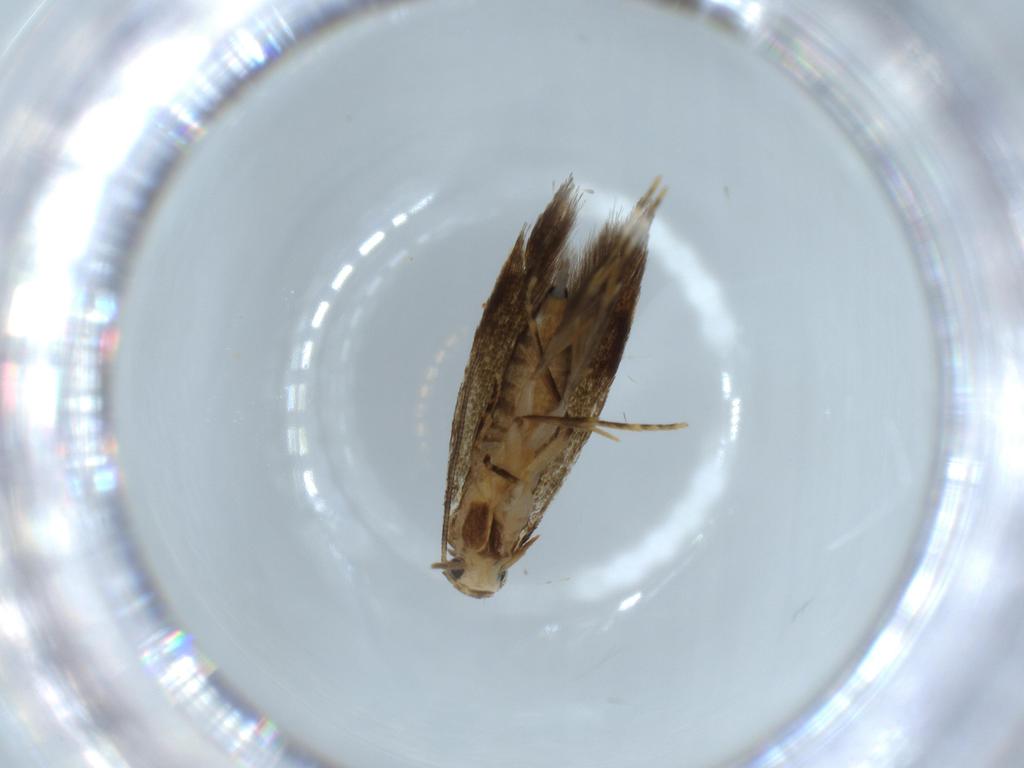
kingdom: Animalia
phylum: Arthropoda
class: Insecta
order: Lepidoptera
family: Tineidae
